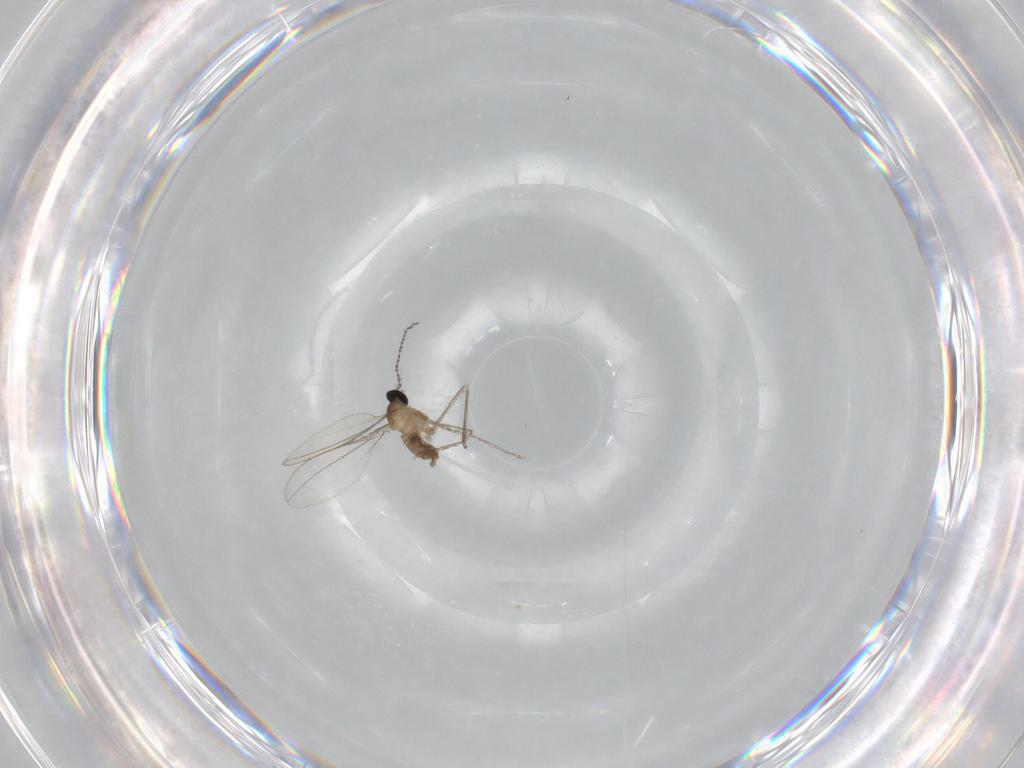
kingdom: Animalia
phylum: Arthropoda
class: Insecta
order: Diptera
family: Cecidomyiidae
